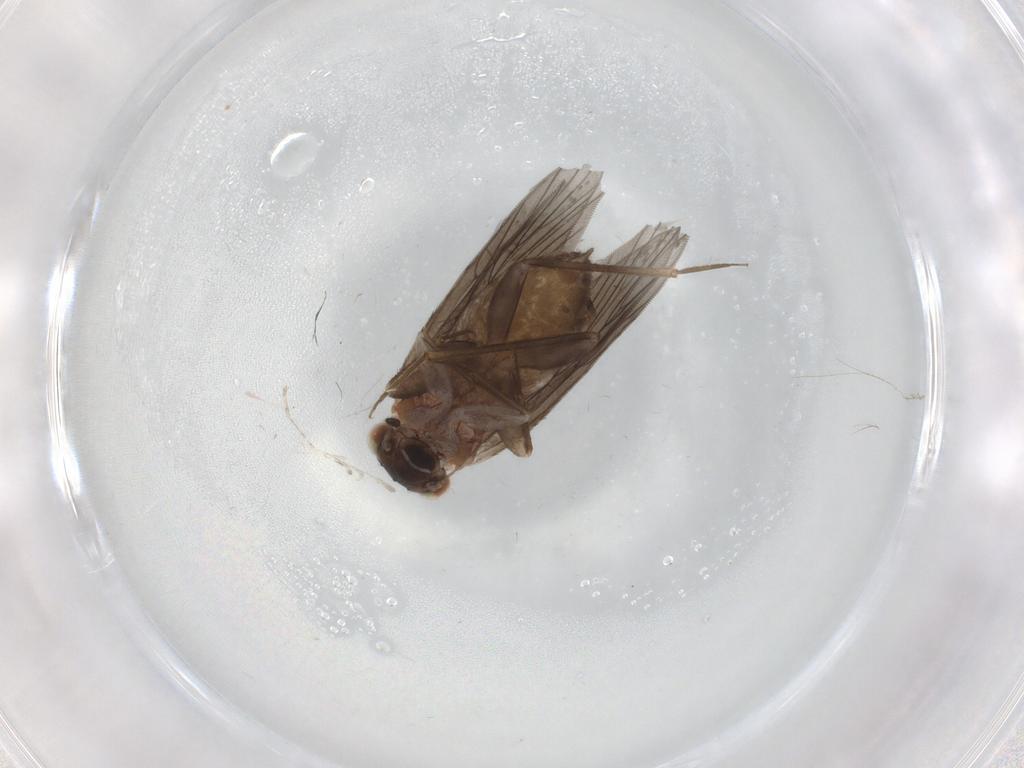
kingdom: Animalia
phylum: Arthropoda
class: Insecta
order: Psocodea
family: Lepidopsocidae
